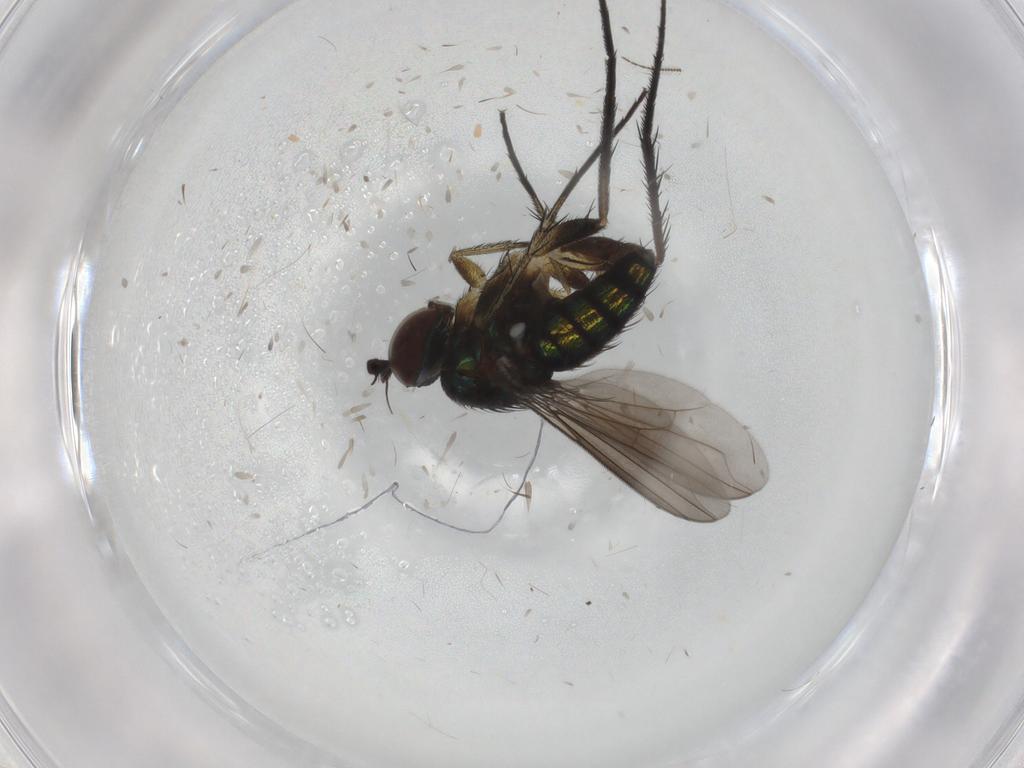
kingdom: Animalia
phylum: Arthropoda
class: Insecta
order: Diptera
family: Dolichopodidae
